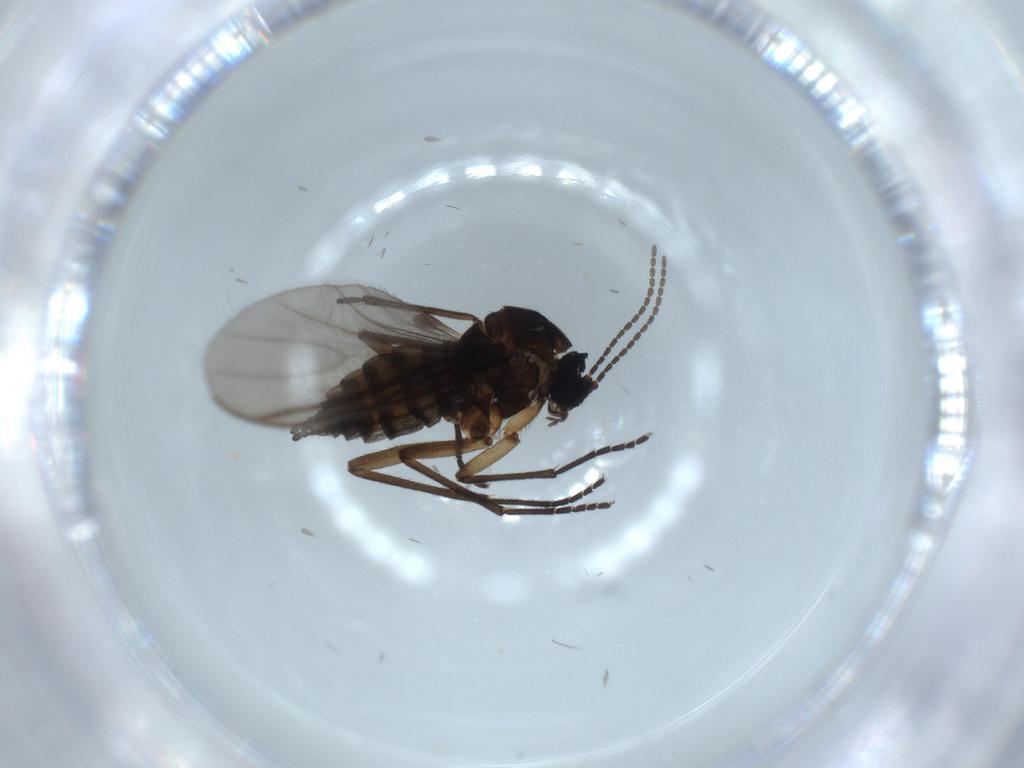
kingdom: Animalia
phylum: Arthropoda
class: Insecta
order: Diptera
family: Sciaridae
